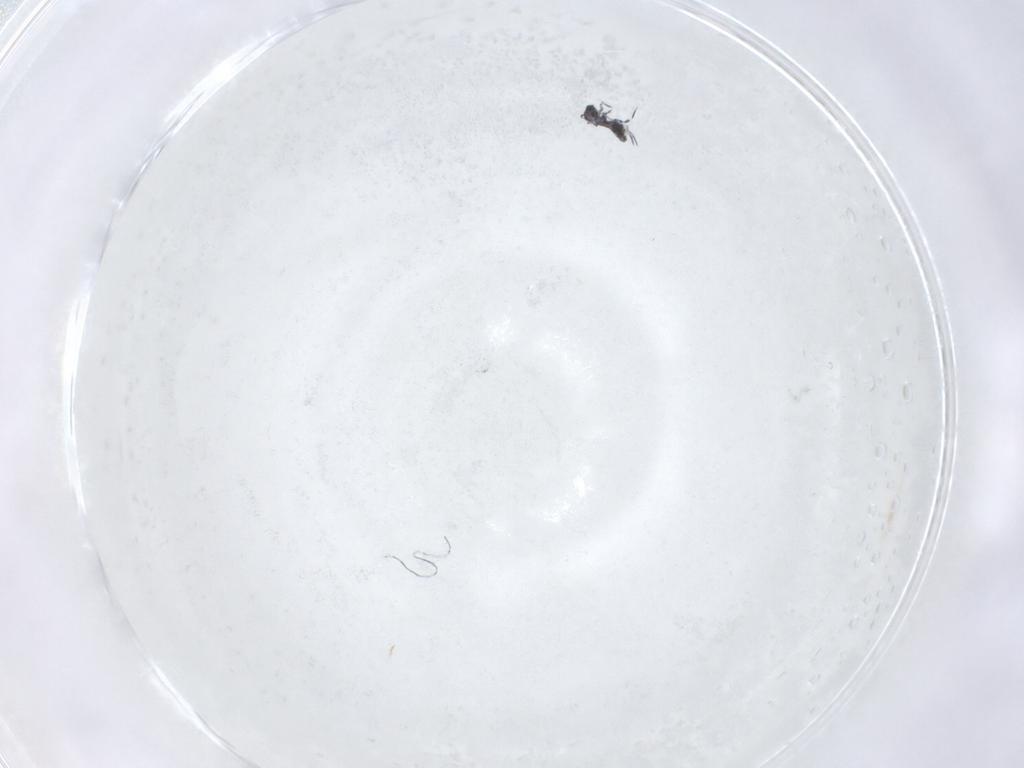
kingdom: Animalia
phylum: Arthropoda
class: Collembola
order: Symphypleona
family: Katiannidae
